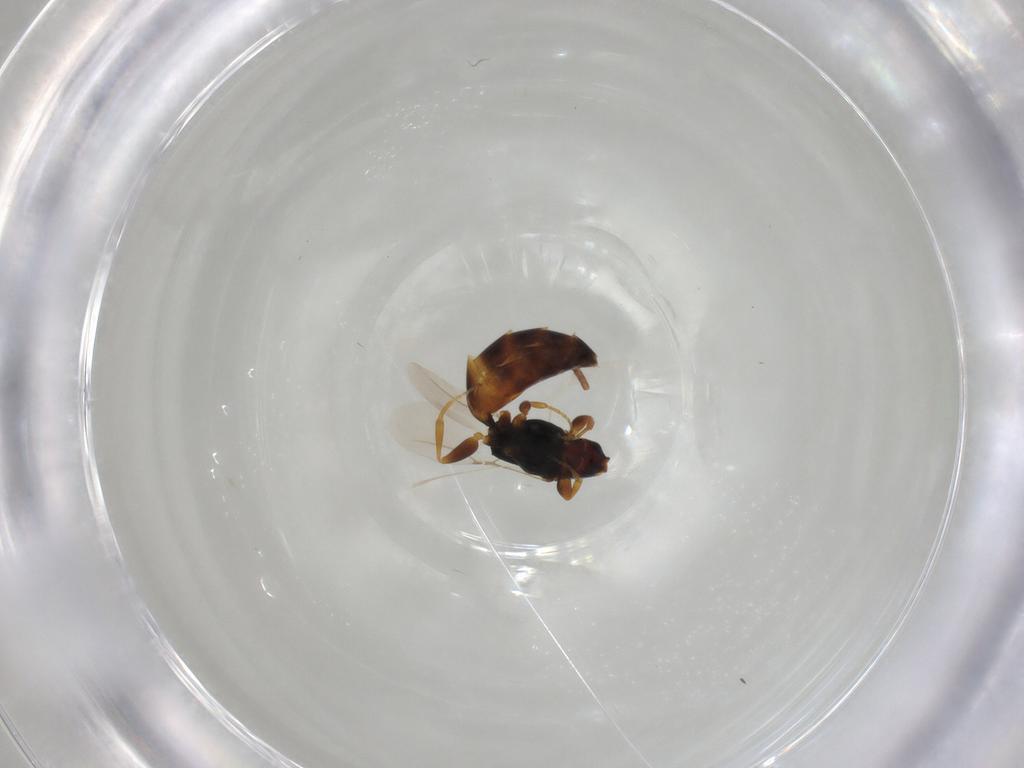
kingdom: Animalia
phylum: Arthropoda
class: Insecta
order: Hymenoptera
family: Bethylidae
